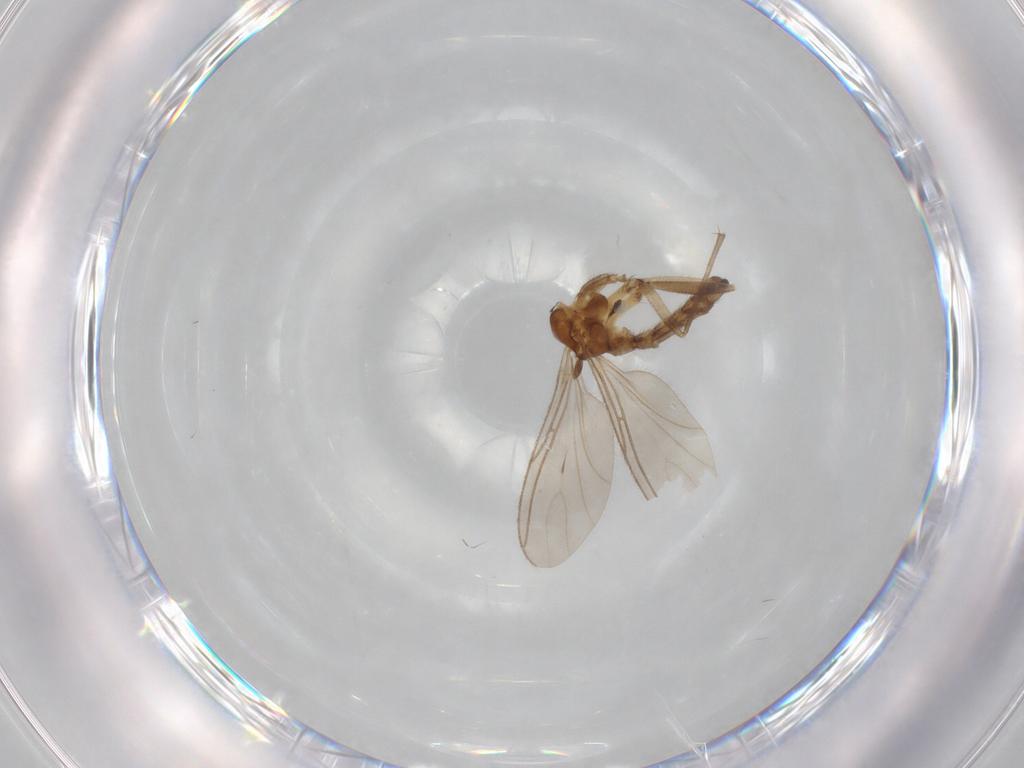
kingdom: Animalia
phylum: Arthropoda
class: Insecta
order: Diptera
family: Sciaridae
